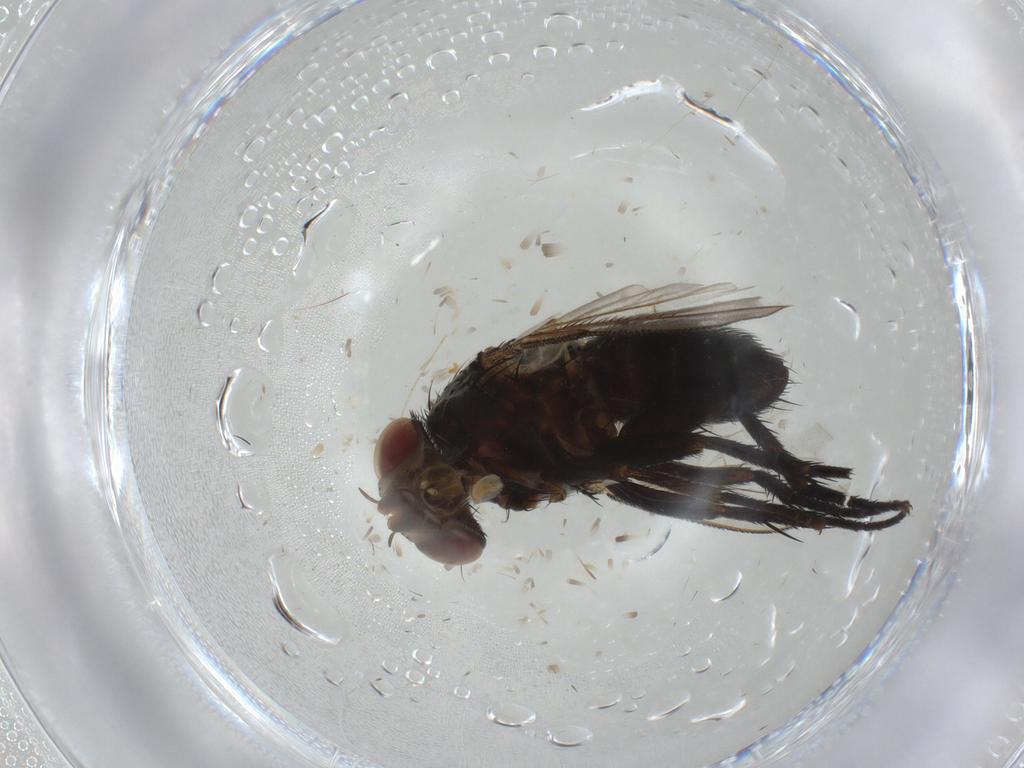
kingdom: Animalia
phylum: Arthropoda
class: Insecta
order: Diptera
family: Tachinidae
